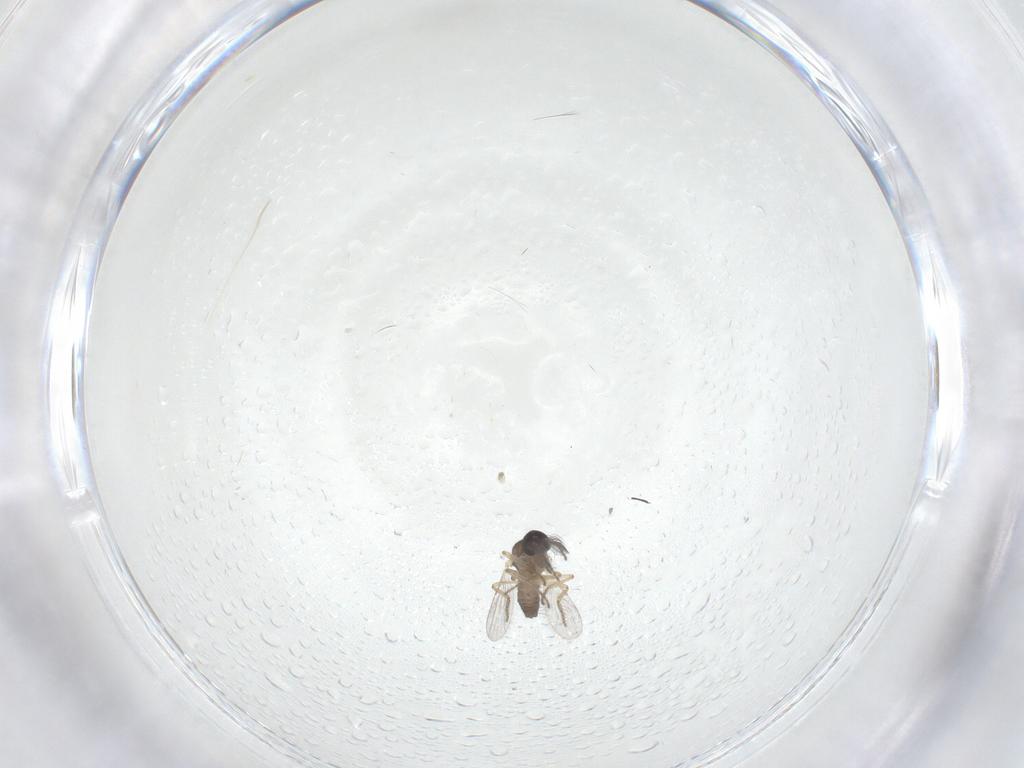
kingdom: Animalia
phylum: Arthropoda
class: Insecta
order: Diptera
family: Ceratopogonidae
